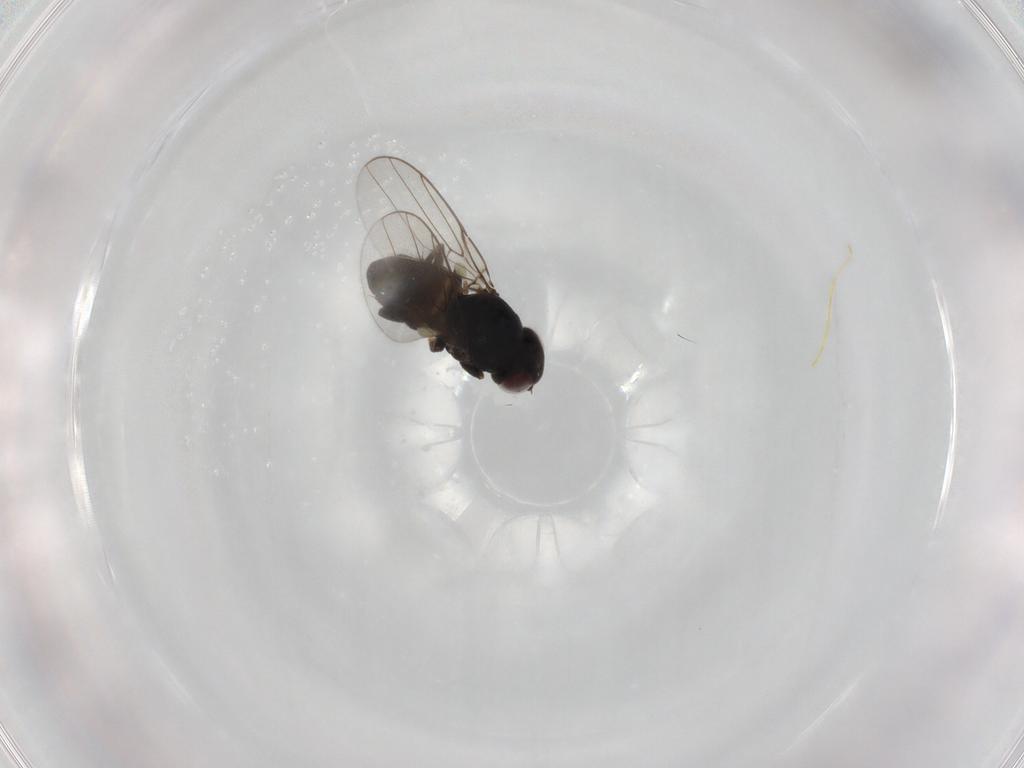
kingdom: Animalia
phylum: Arthropoda
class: Insecta
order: Diptera
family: Chloropidae
